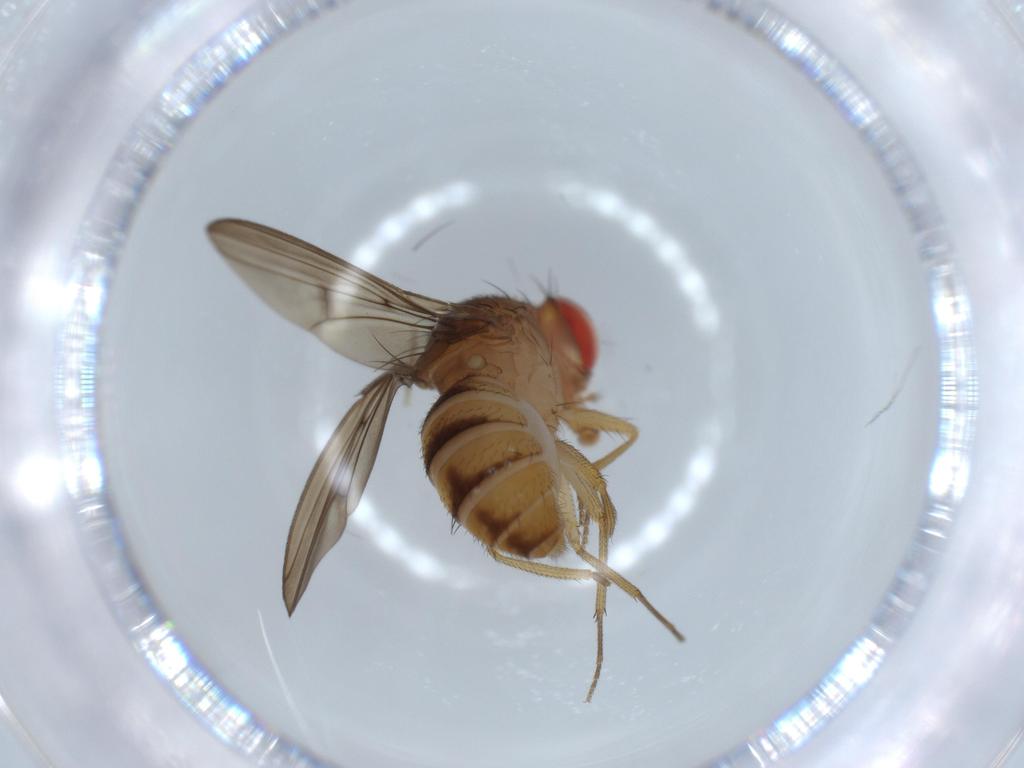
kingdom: Animalia
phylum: Arthropoda
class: Insecta
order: Diptera
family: Drosophilidae
